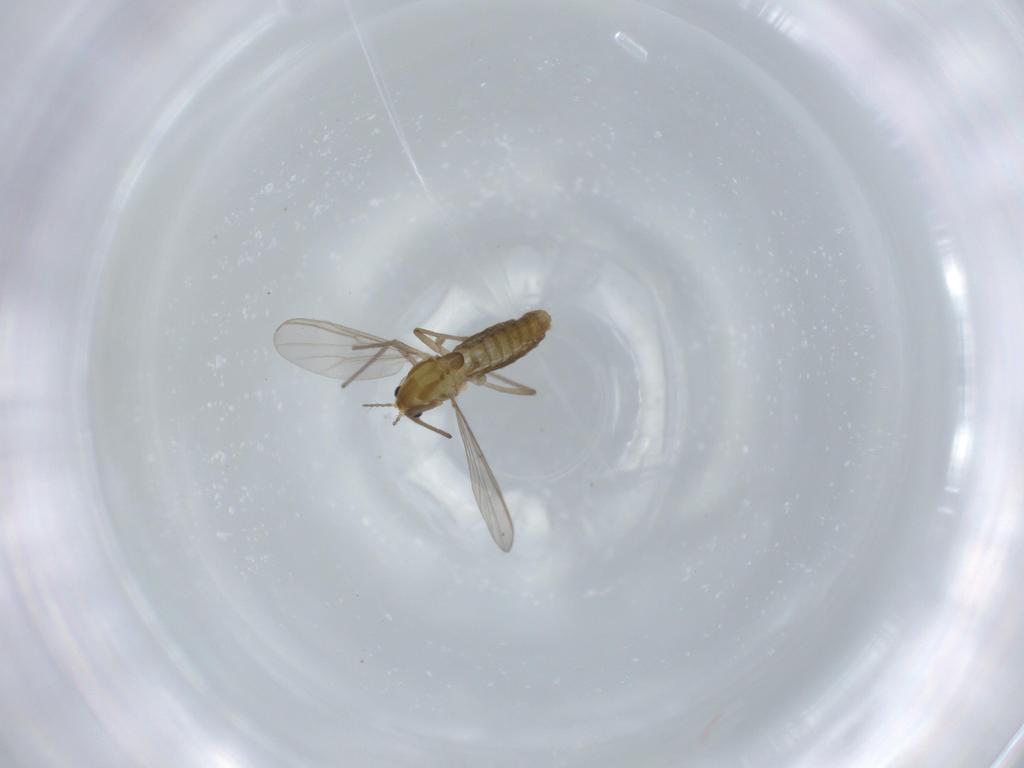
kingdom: Animalia
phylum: Arthropoda
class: Insecta
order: Diptera
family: Chironomidae
